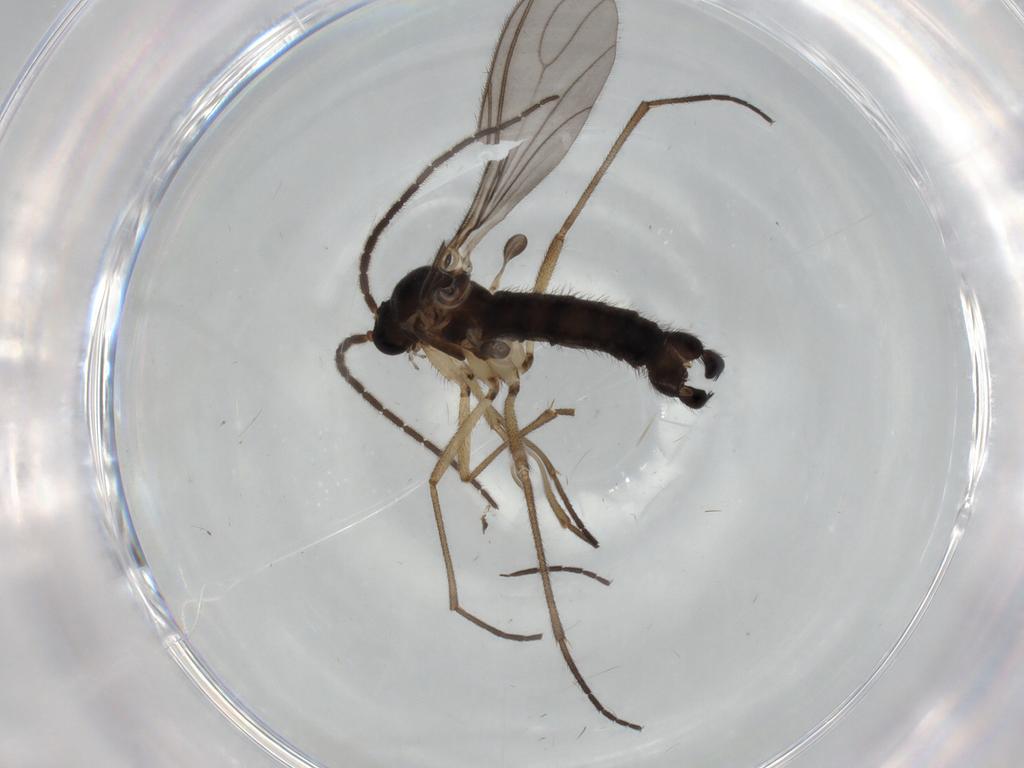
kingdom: Animalia
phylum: Arthropoda
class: Insecta
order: Diptera
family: Sciaridae
